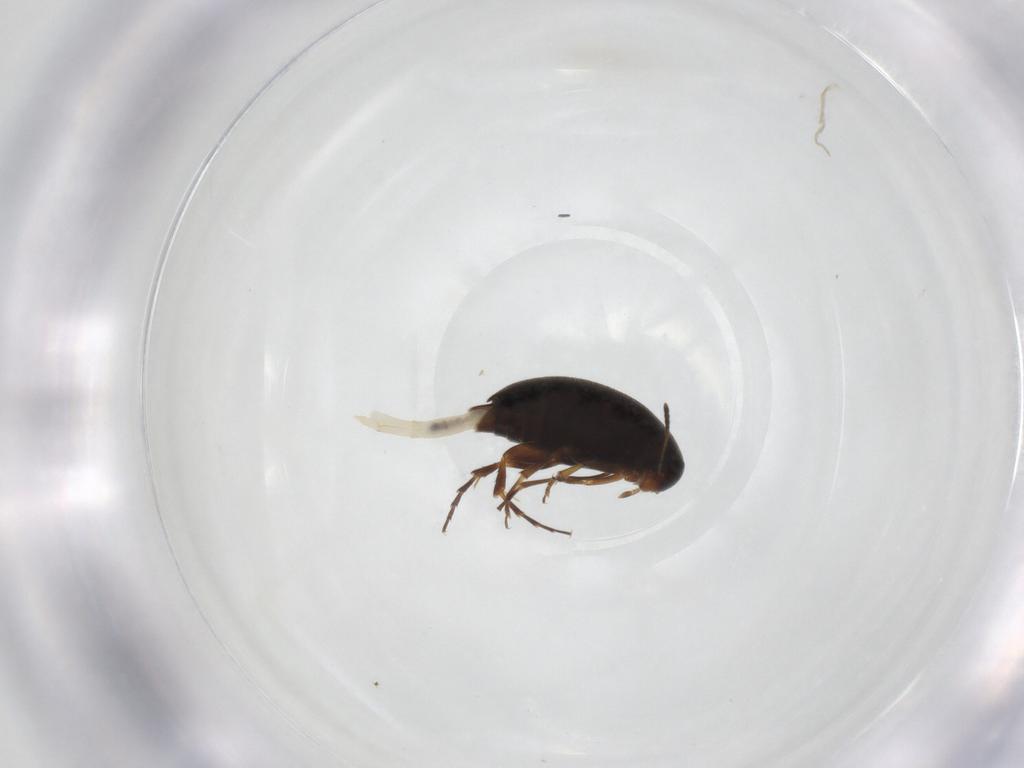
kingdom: Animalia
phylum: Arthropoda
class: Insecta
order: Coleoptera
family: Scraptiidae
